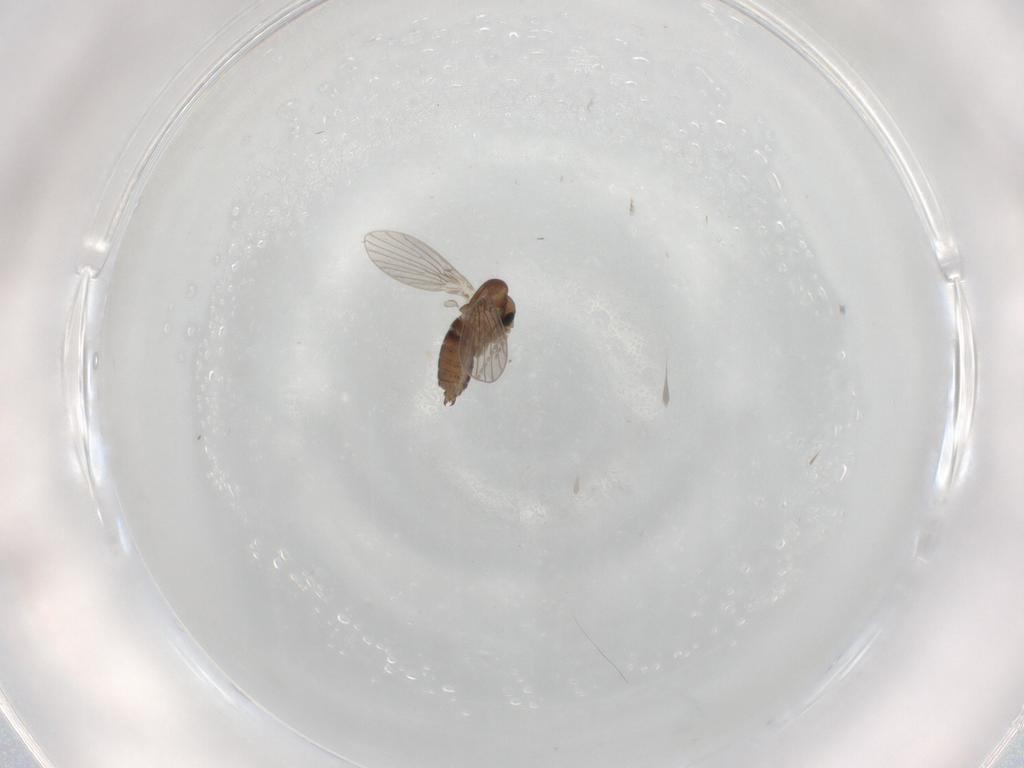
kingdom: Animalia
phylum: Arthropoda
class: Insecta
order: Diptera
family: Psychodidae
